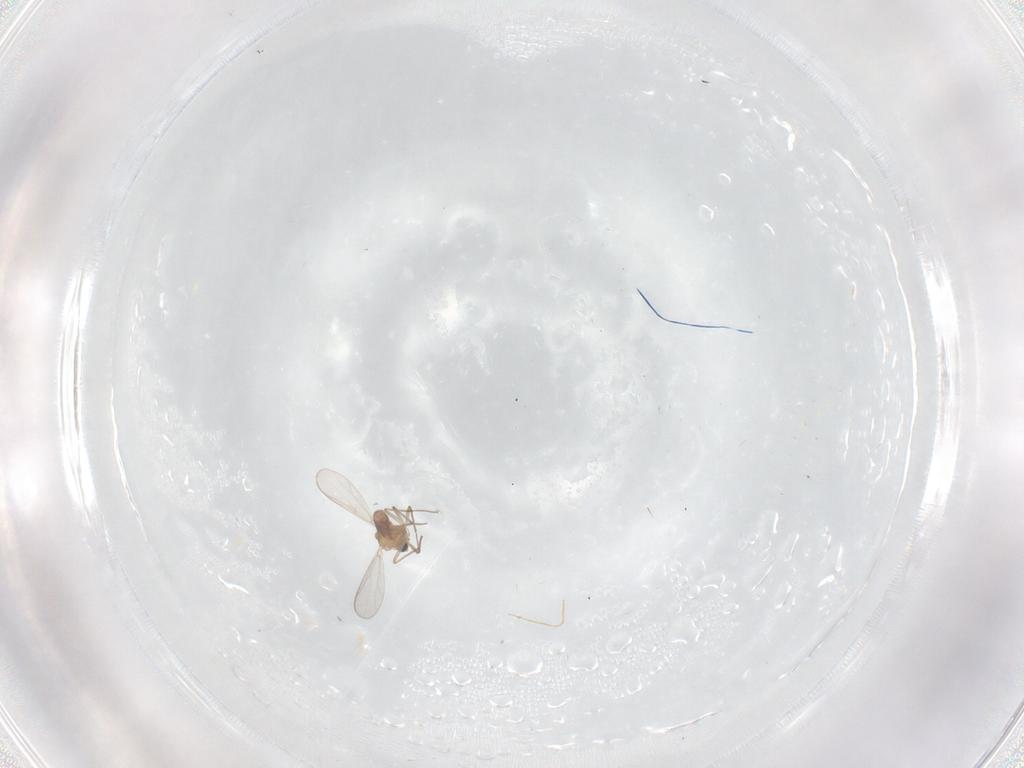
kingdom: Animalia
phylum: Arthropoda
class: Insecta
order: Diptera
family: Chironomidae
